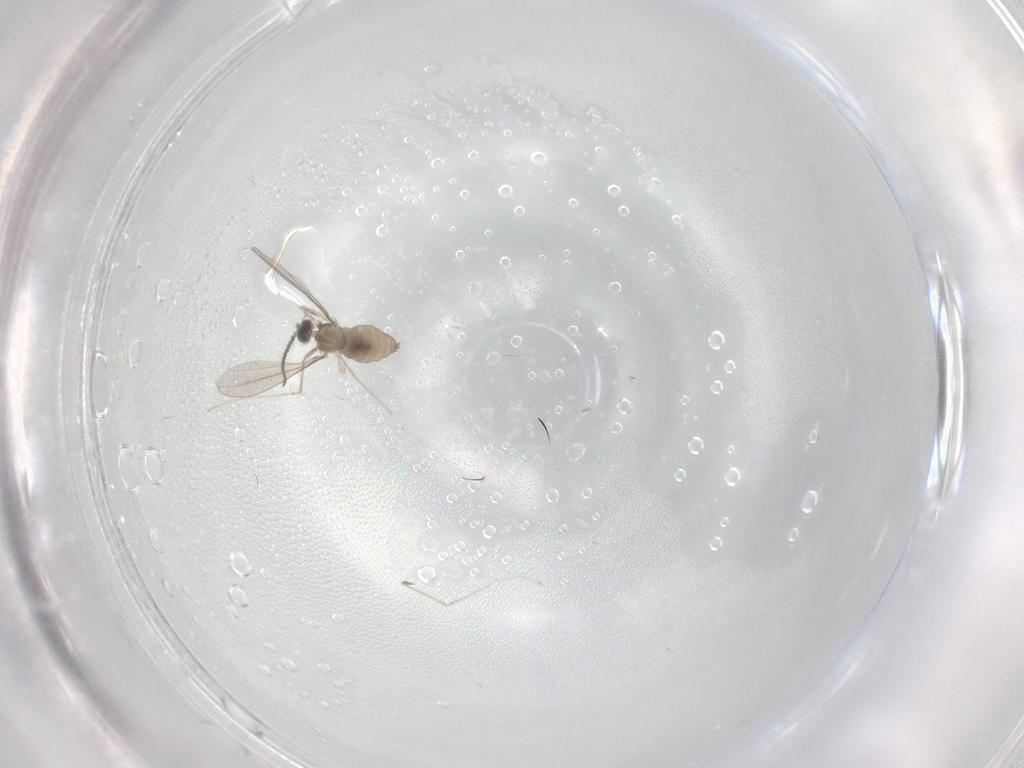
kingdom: Animalia
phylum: Arthropoda
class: Insecta
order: Diptera
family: Cecidomyiidae
